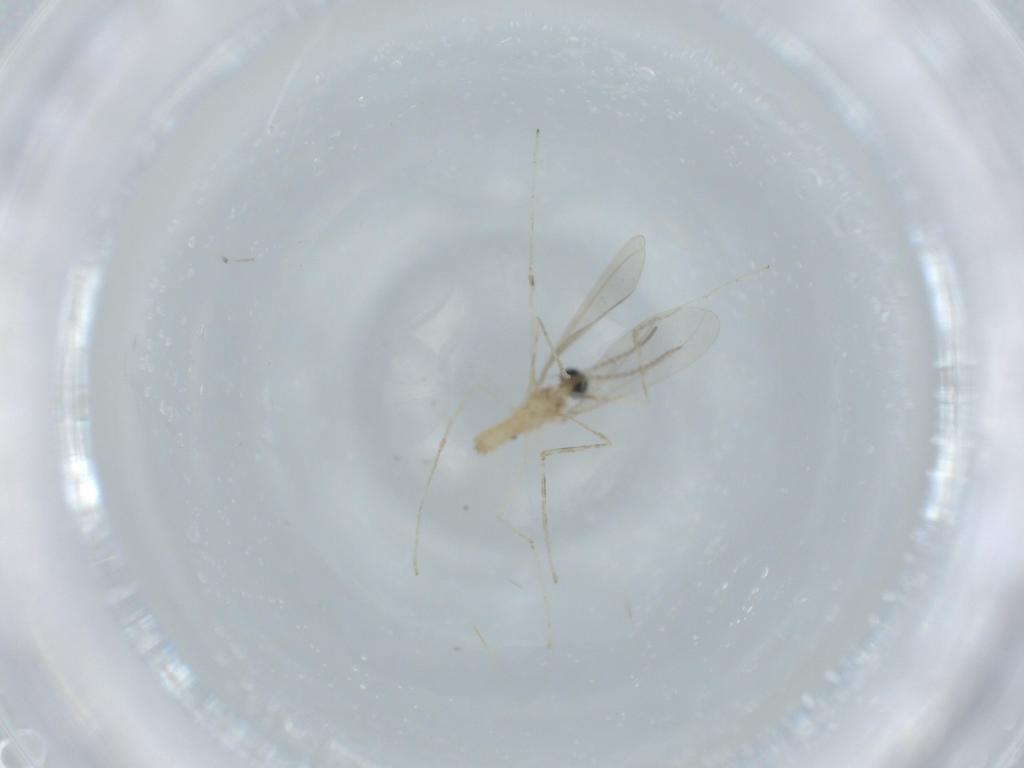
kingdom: Animalia
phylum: Arthropoda
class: Insecta
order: Diptera
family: Cecidomyiidae
